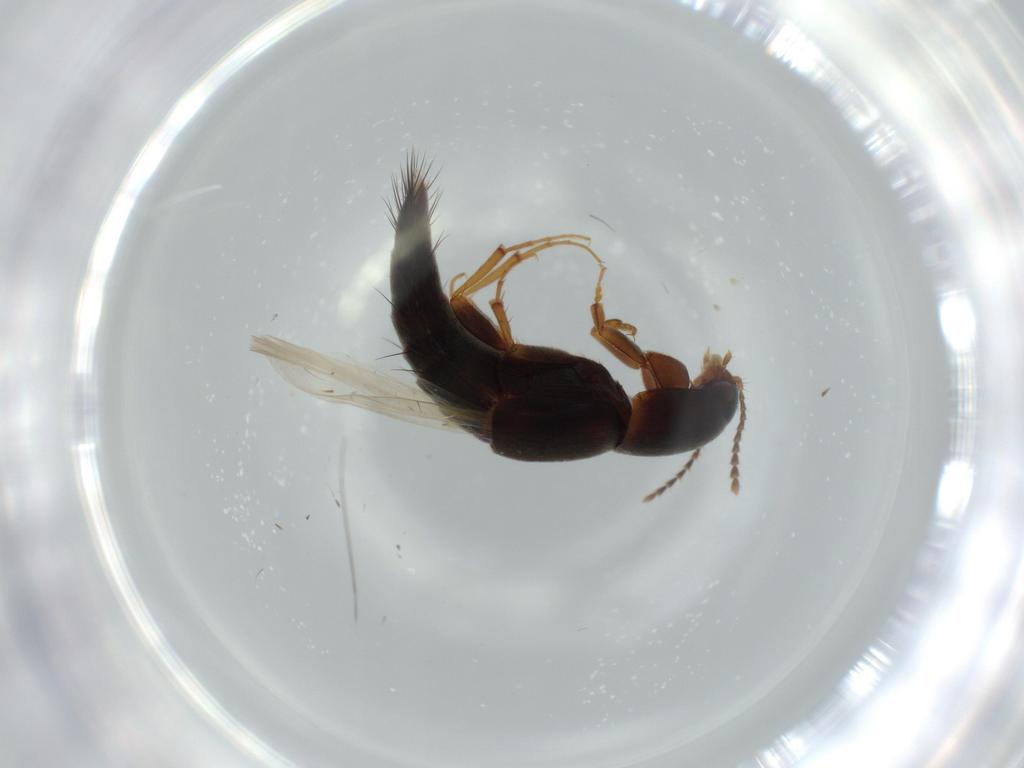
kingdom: Animalia
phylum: Arthropoda
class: Insecta
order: Coleoptera
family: Staphylinidae
